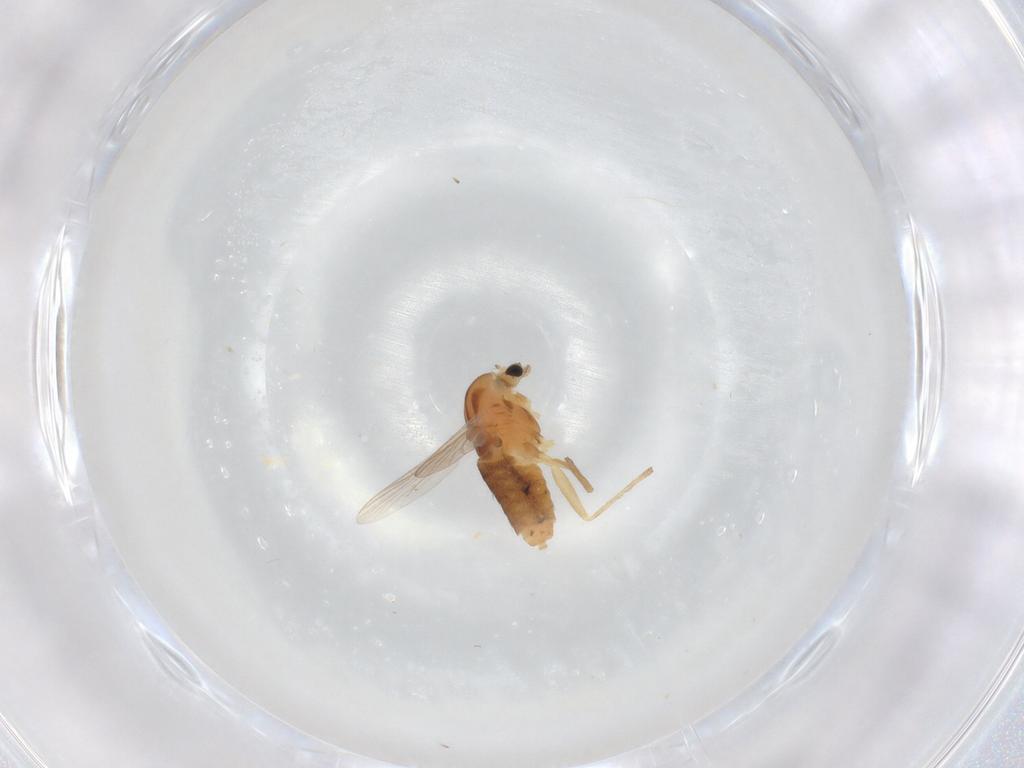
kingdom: Animalia
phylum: Arthropoda
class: Insecta
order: Diptera
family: Chironomidae
